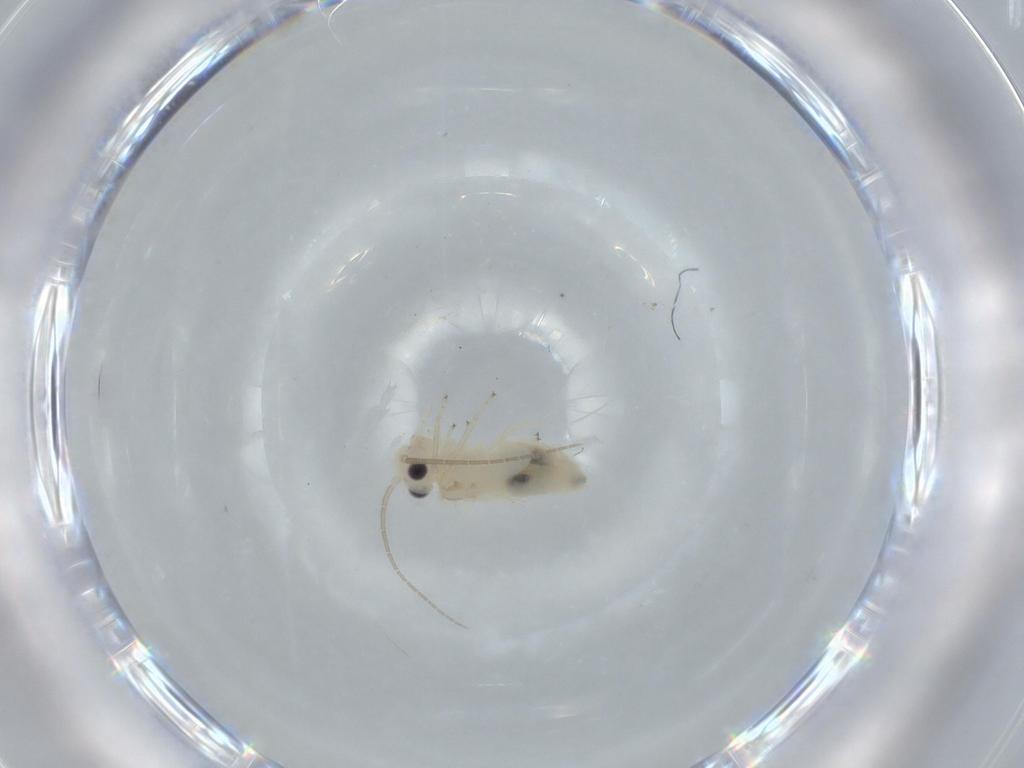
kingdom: Animalia
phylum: Arthropoda
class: Insecta
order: Psocodea
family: Caeciliusidae
